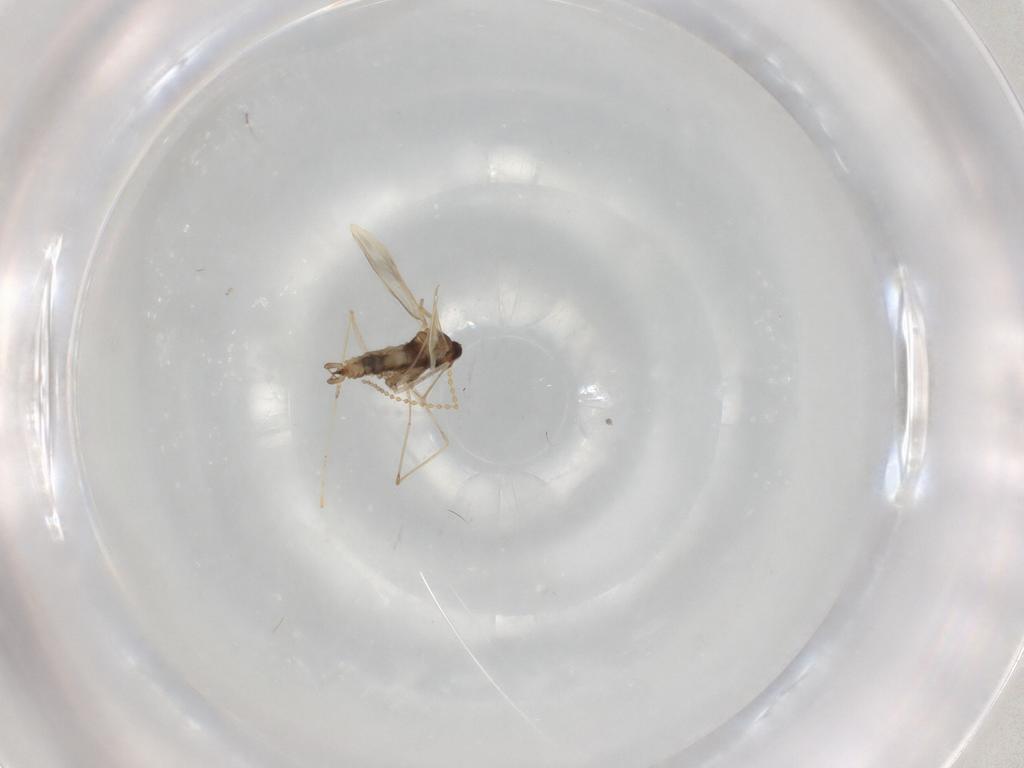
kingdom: Animalia
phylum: Arthropoda
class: Insecta
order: Diptera
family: Cecidomyiidae
